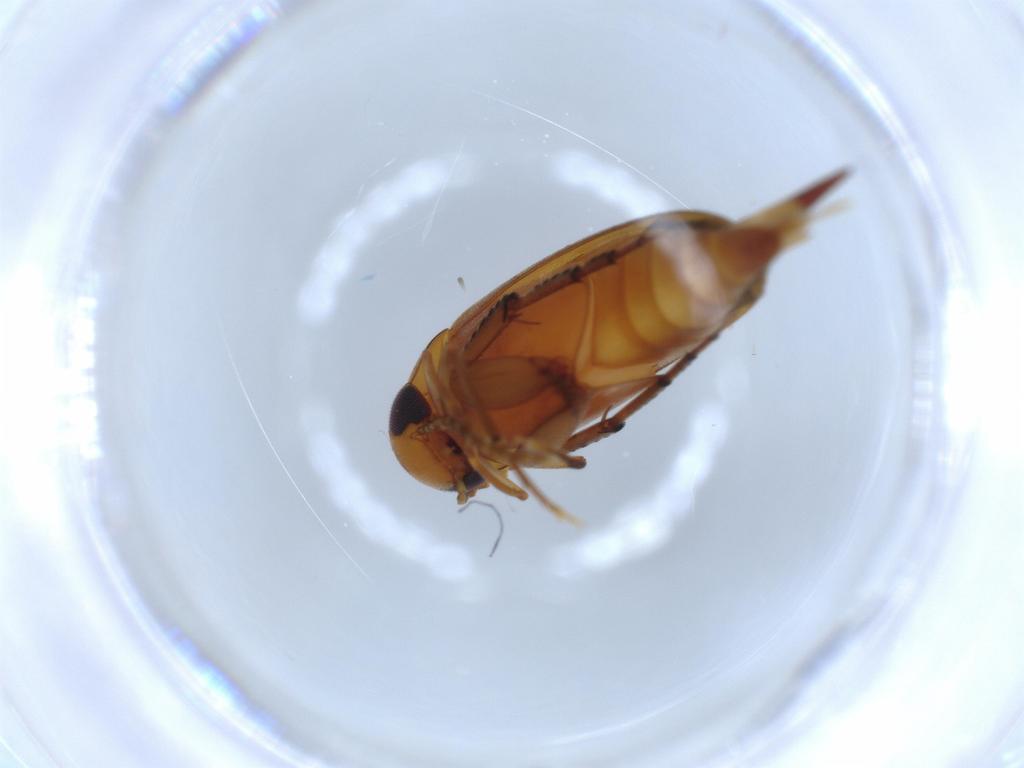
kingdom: Animalia
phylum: Arthropoda
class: Insecta
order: Coleoptera
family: Mordellidae
